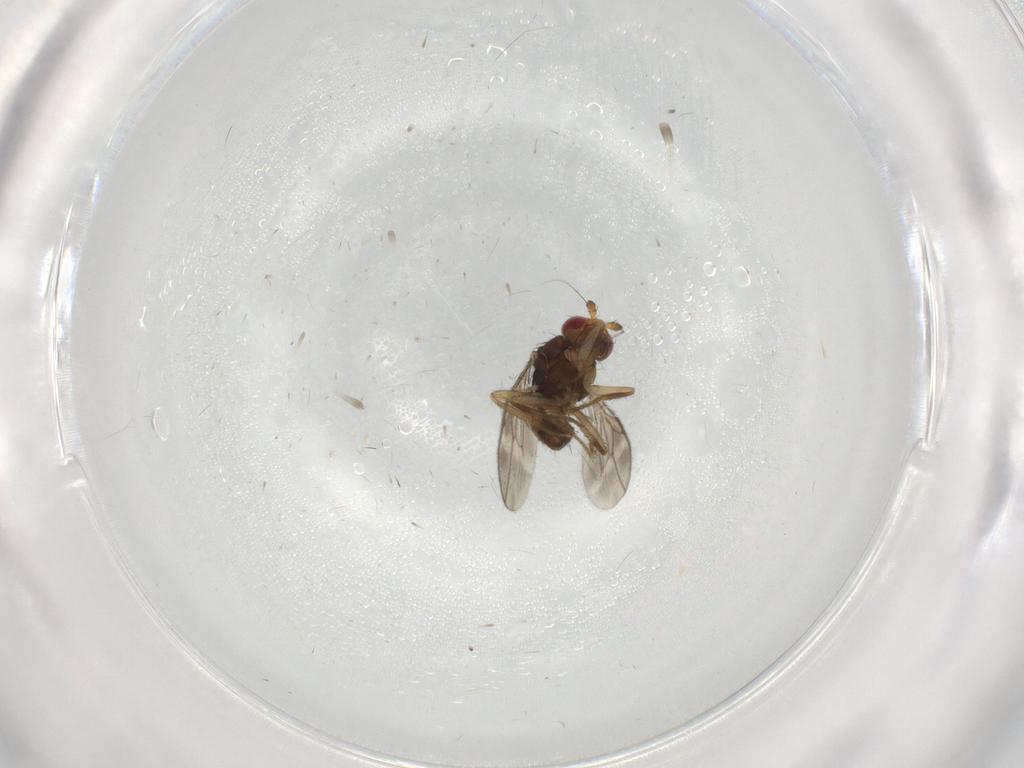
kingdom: Animalia
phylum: Arthropoda
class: Insecta
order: Diptera
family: Sphaeroceridae
